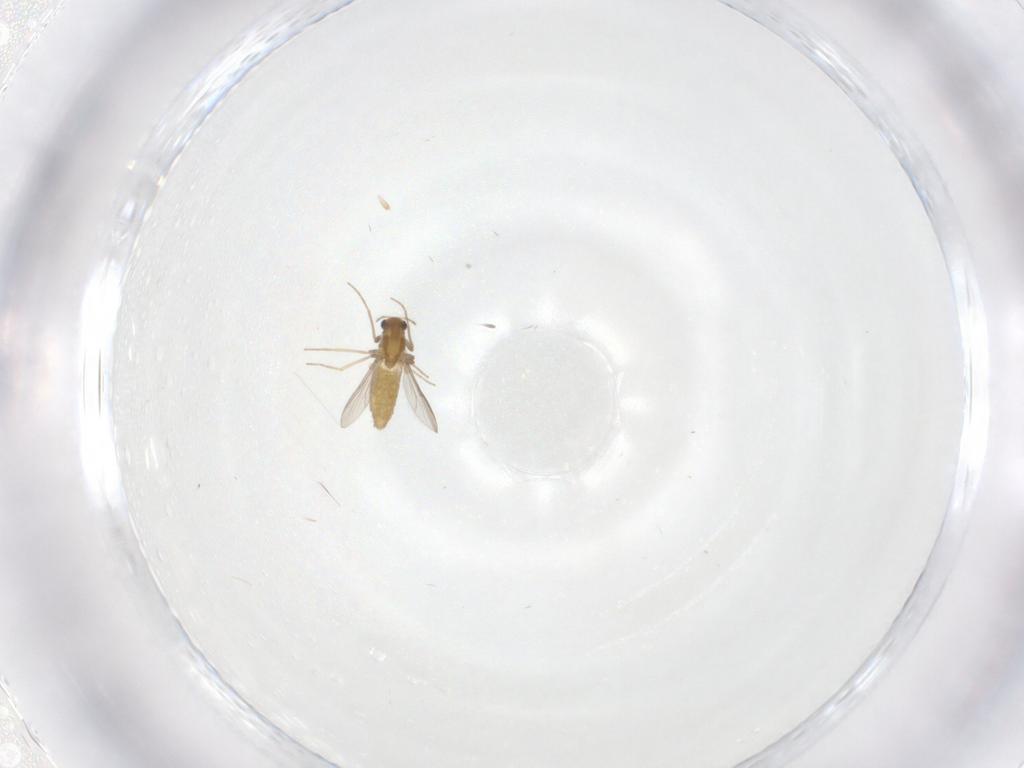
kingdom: Animalia
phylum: Arthropoda
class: Insecta
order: Diptera
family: Chironomidae
